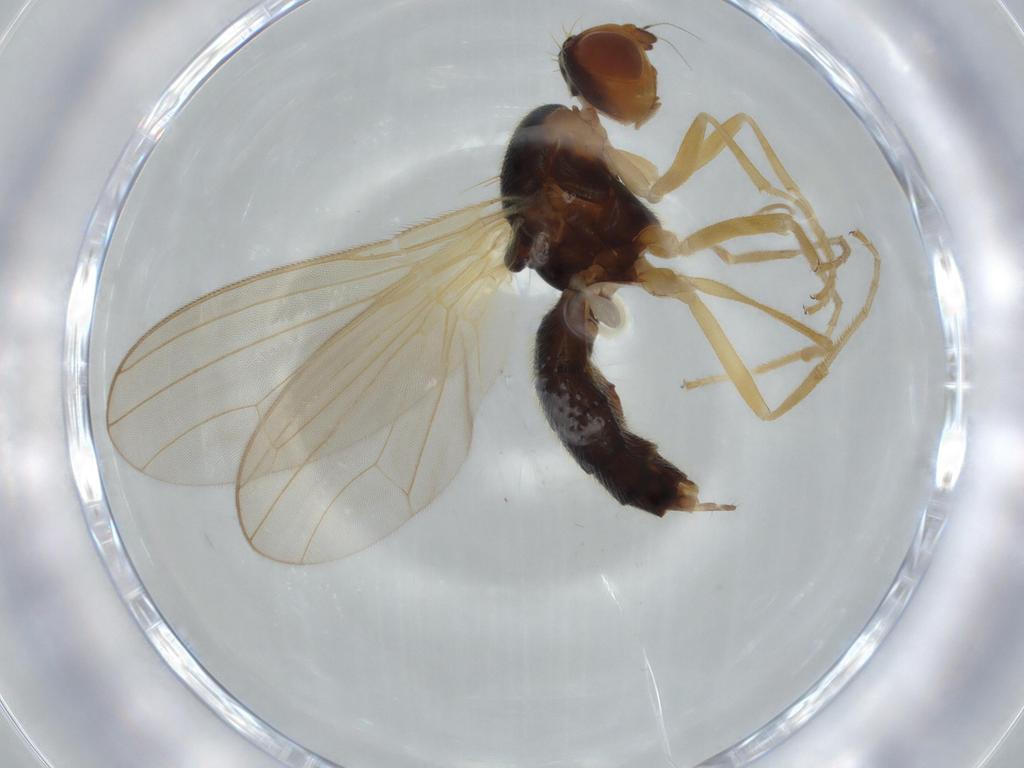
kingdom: Animalia
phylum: Arthropoda
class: Insecta
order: Diptera
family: Psilidae
